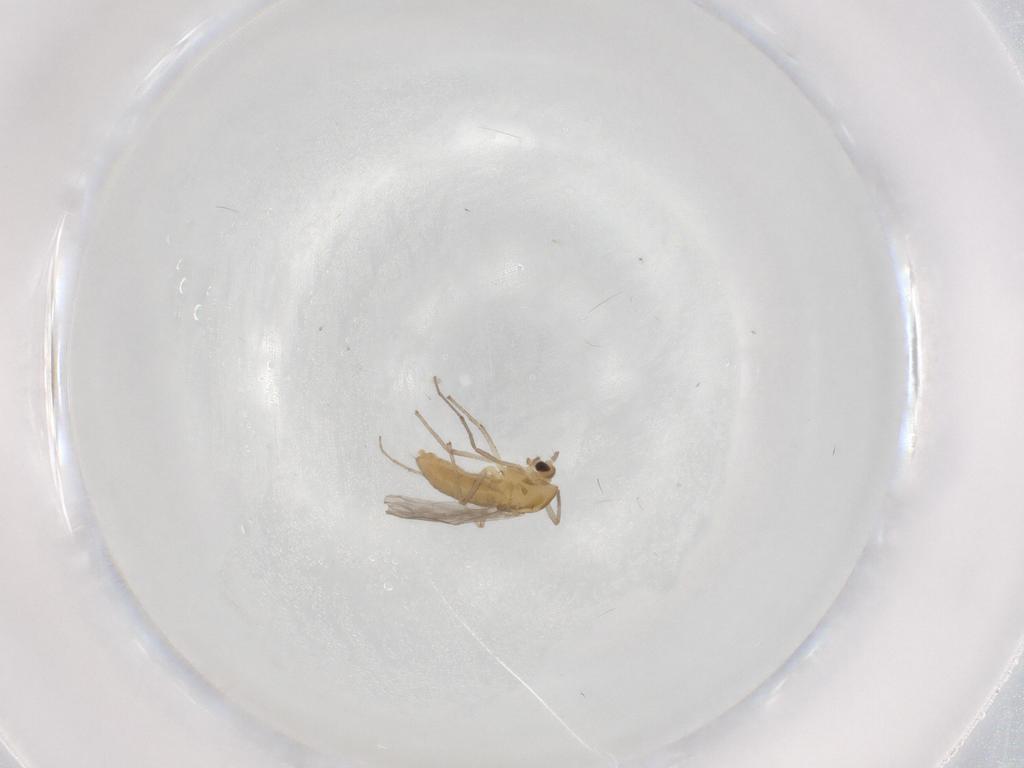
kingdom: Animalia
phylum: Arthropoda
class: Insecta
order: Diptera
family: Chironomidae
